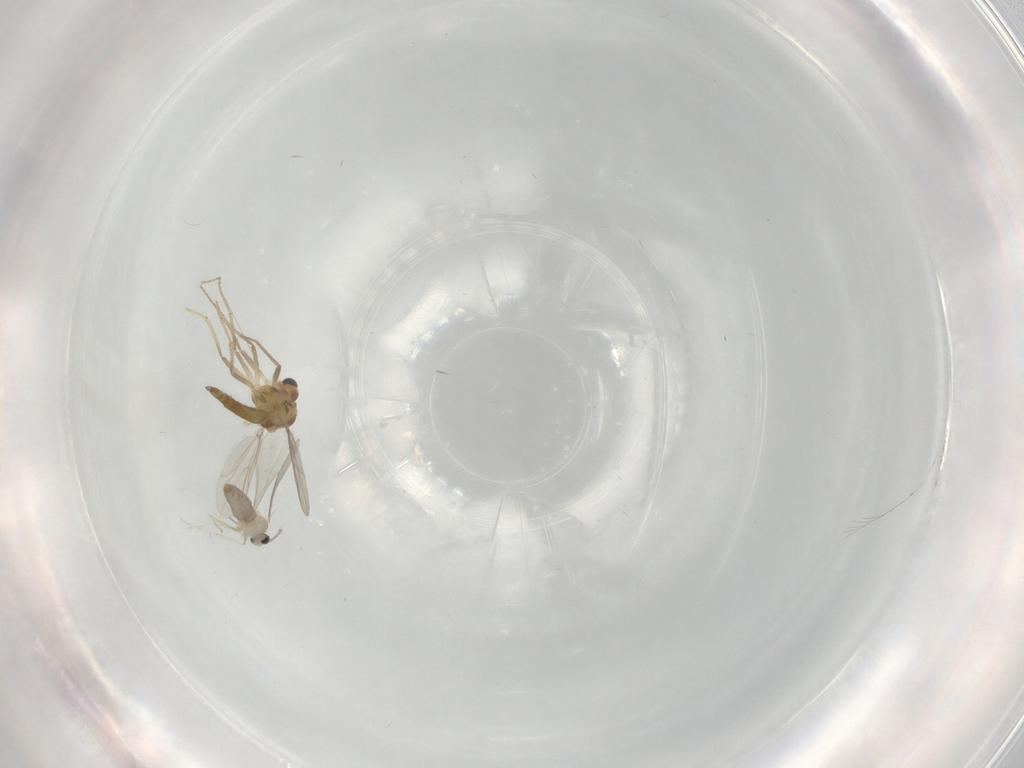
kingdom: Animalia
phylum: Arthropoda
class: Insecta
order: Diptera
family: Chironomidae
